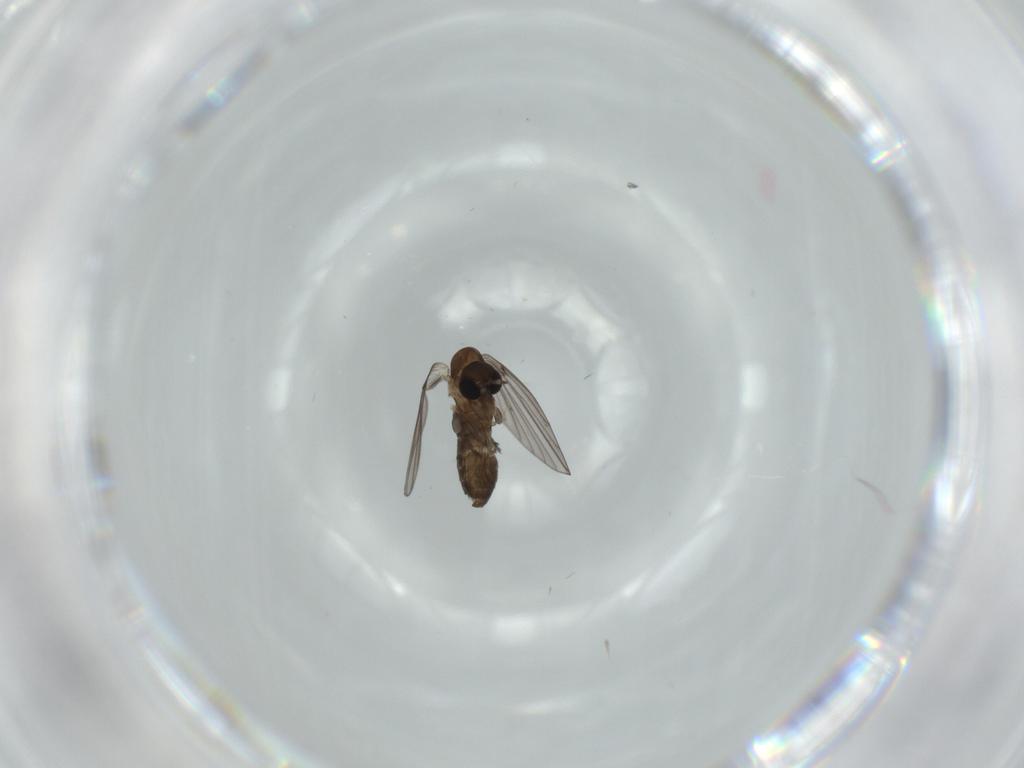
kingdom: Animalia
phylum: Arthropoda
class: Insecta
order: Diptera
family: Psychodidae
